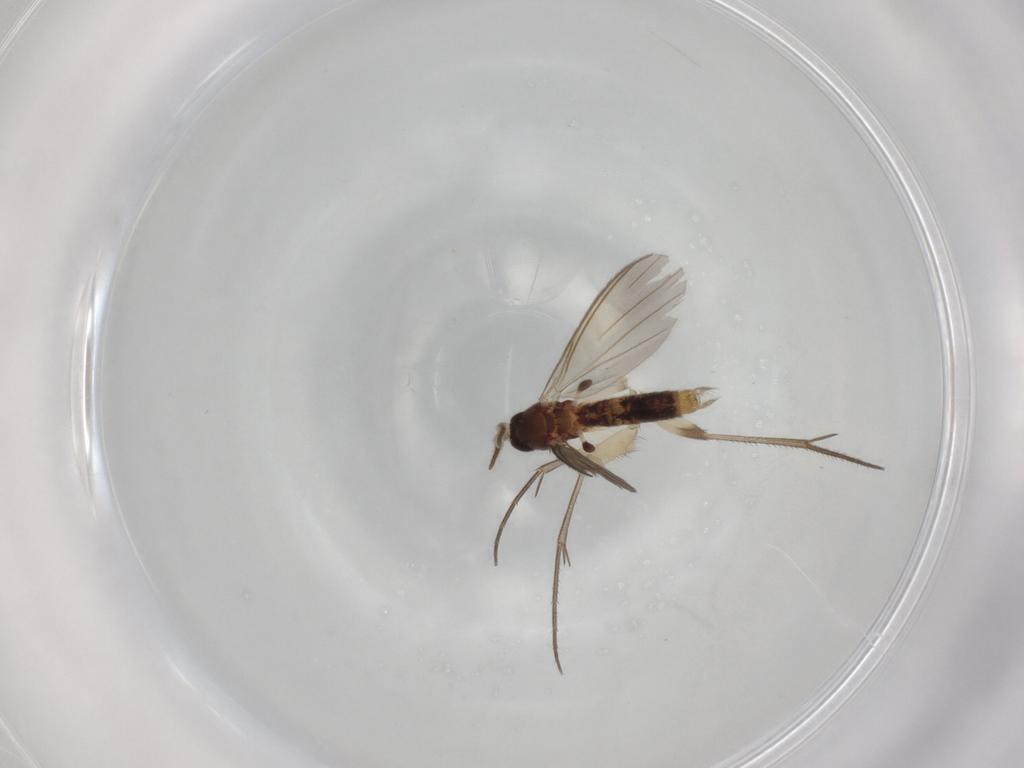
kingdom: Animalia
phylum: Arthropoda
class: Insecta
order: Diptera
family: Mycetophilidae
